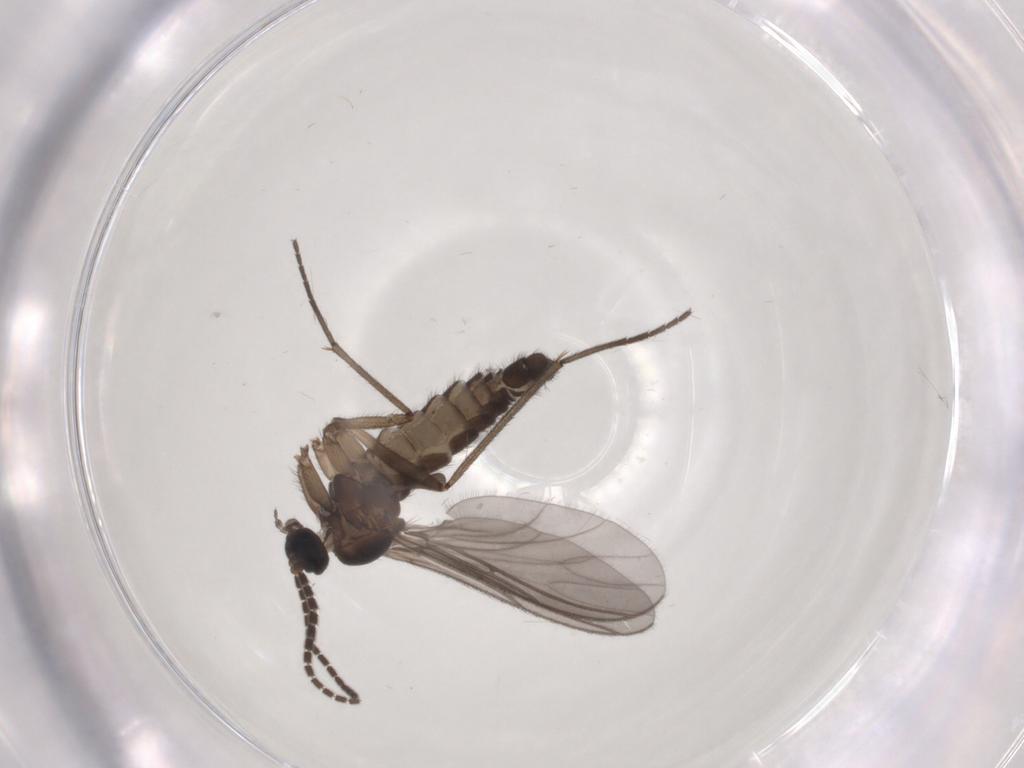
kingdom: Animalia
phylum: Arthropoda
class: Insecta
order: Diptera
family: Sciaridae
